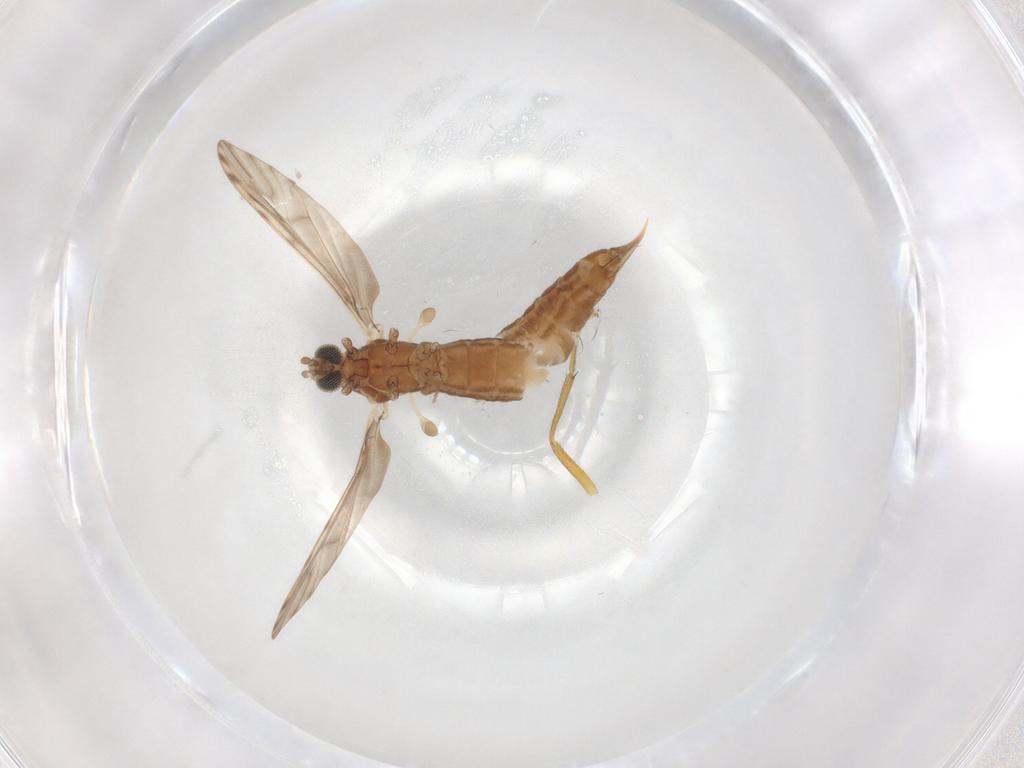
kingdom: Animalia
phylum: Arthropoda
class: Insecta
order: Diptera
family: Limoniidae
